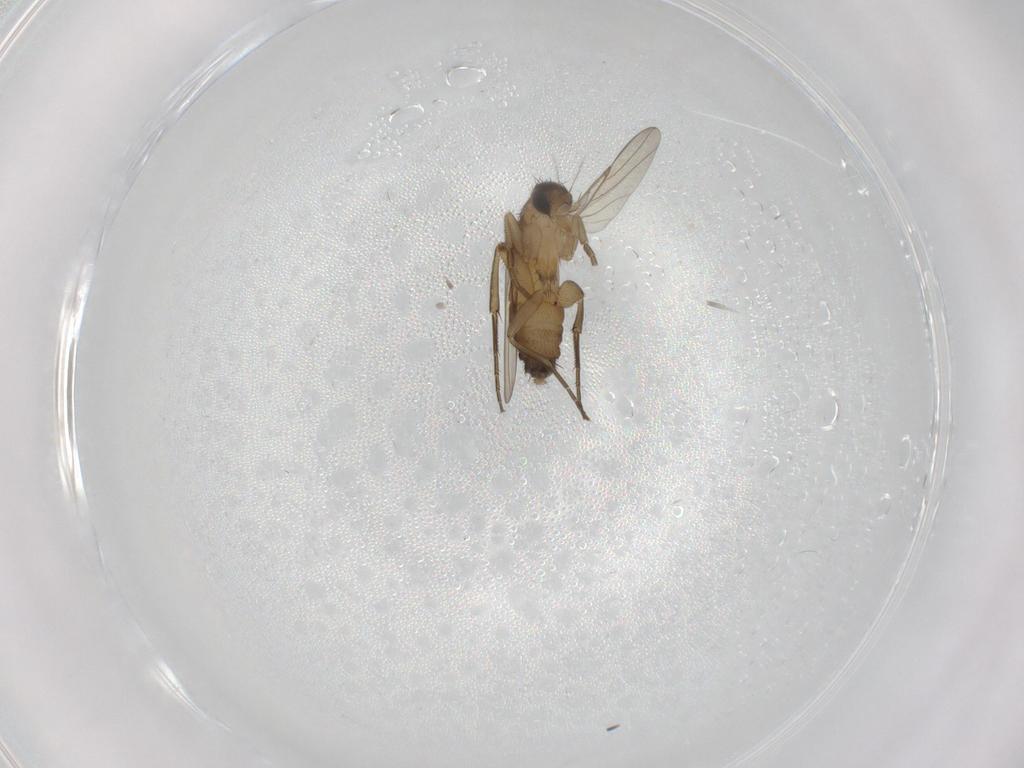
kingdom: Animalia
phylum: Arthropoda
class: Insecta
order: Diptera
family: Phoridae
